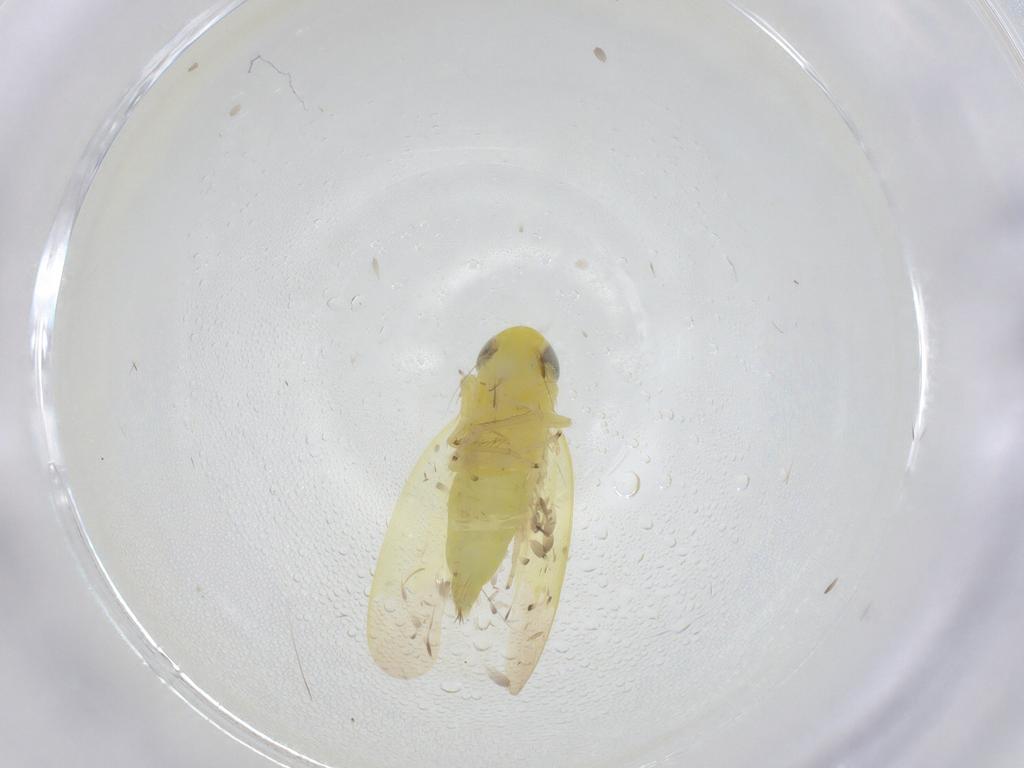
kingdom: Animalia
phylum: Arthropoda
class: Insecta
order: Hemiptera
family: Cicadellidae
